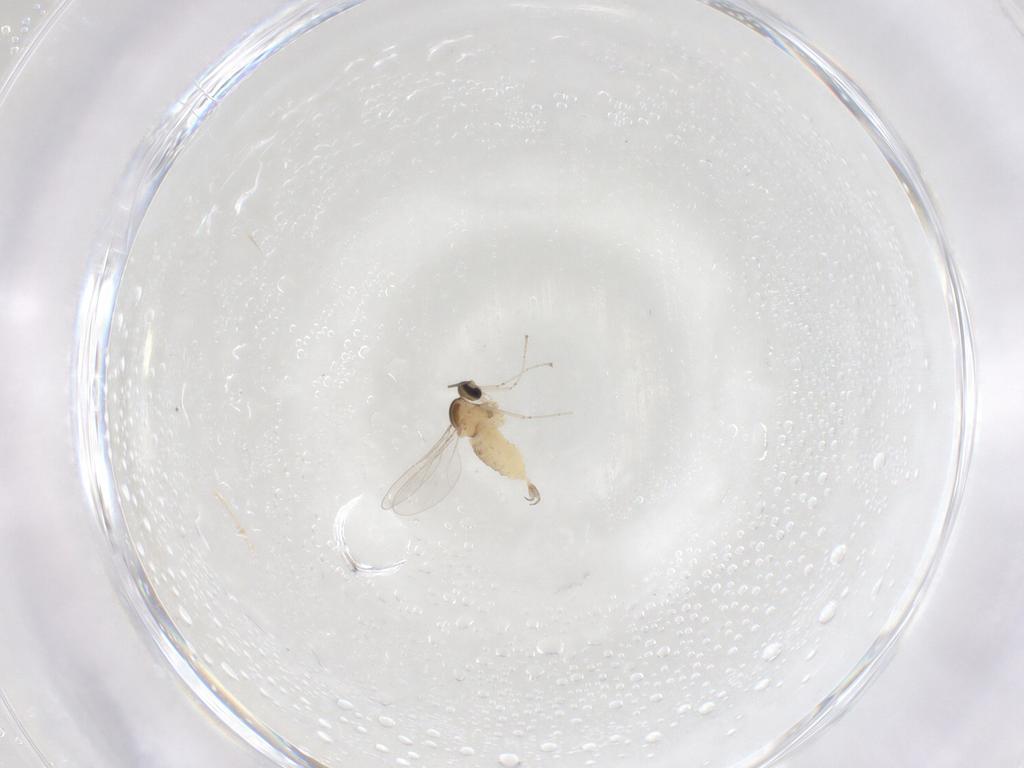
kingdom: Animalia
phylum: Arthropoda
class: Insecta
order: Diptera
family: Cecidomyiidae
